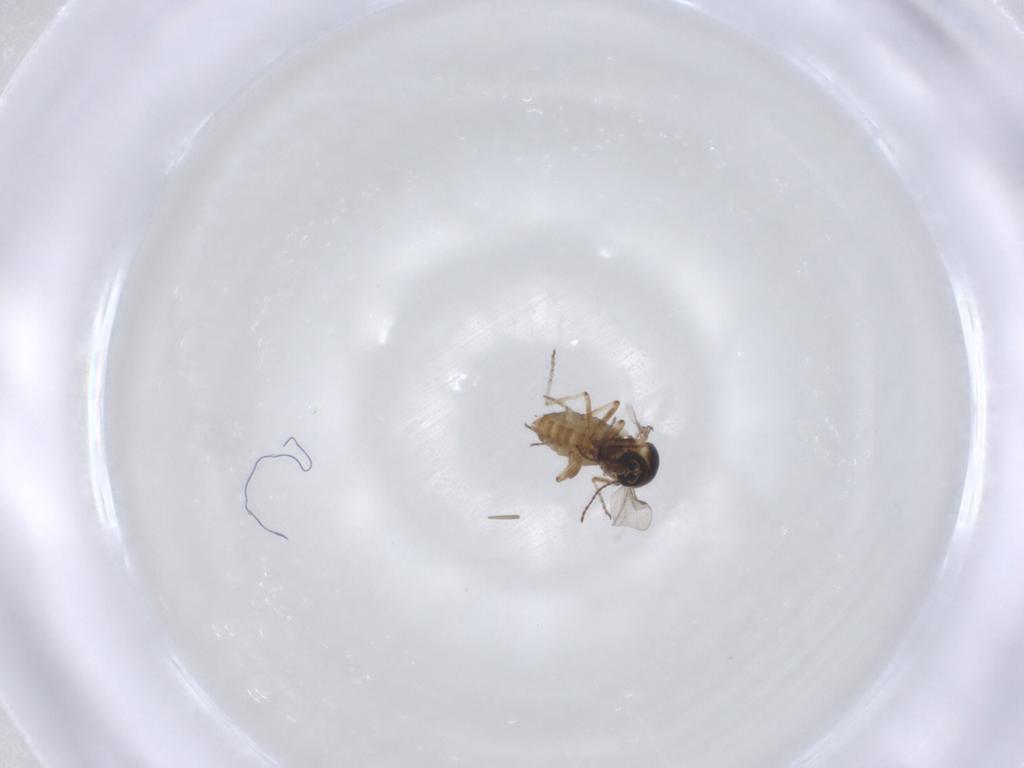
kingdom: Animalia
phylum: Arthropoda
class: Insecta
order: Diptera
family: Ceratopogonidae
